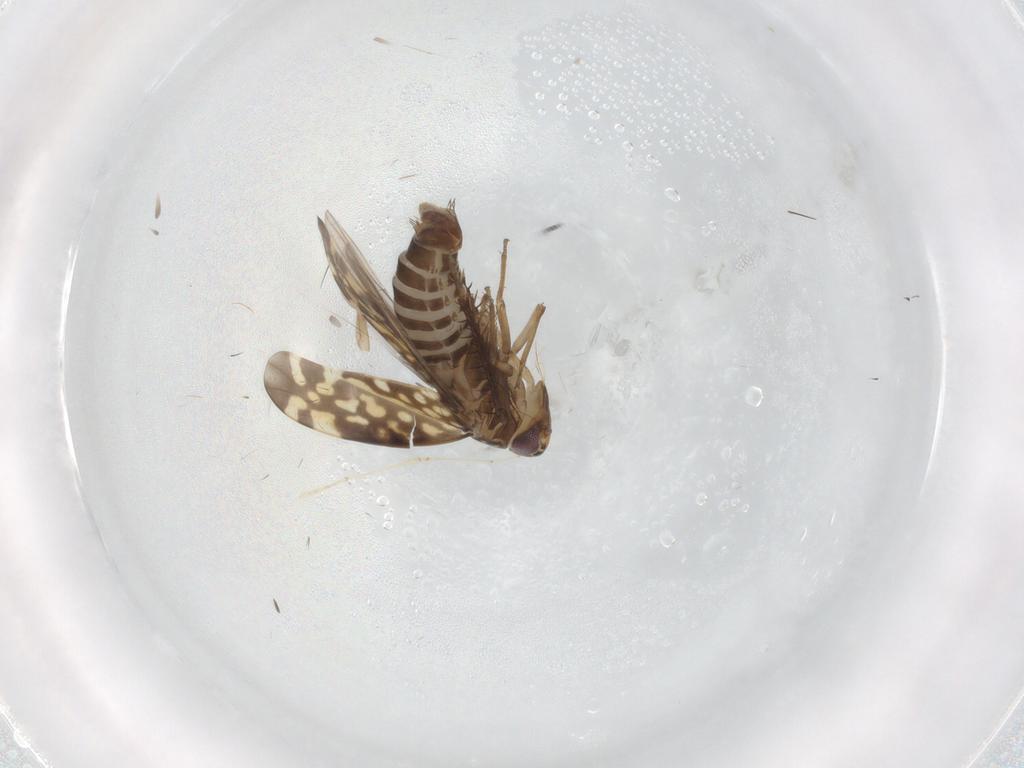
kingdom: Animalia
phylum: Arthropoda
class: Insecta
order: Hemiptera
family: Cicadellidae
